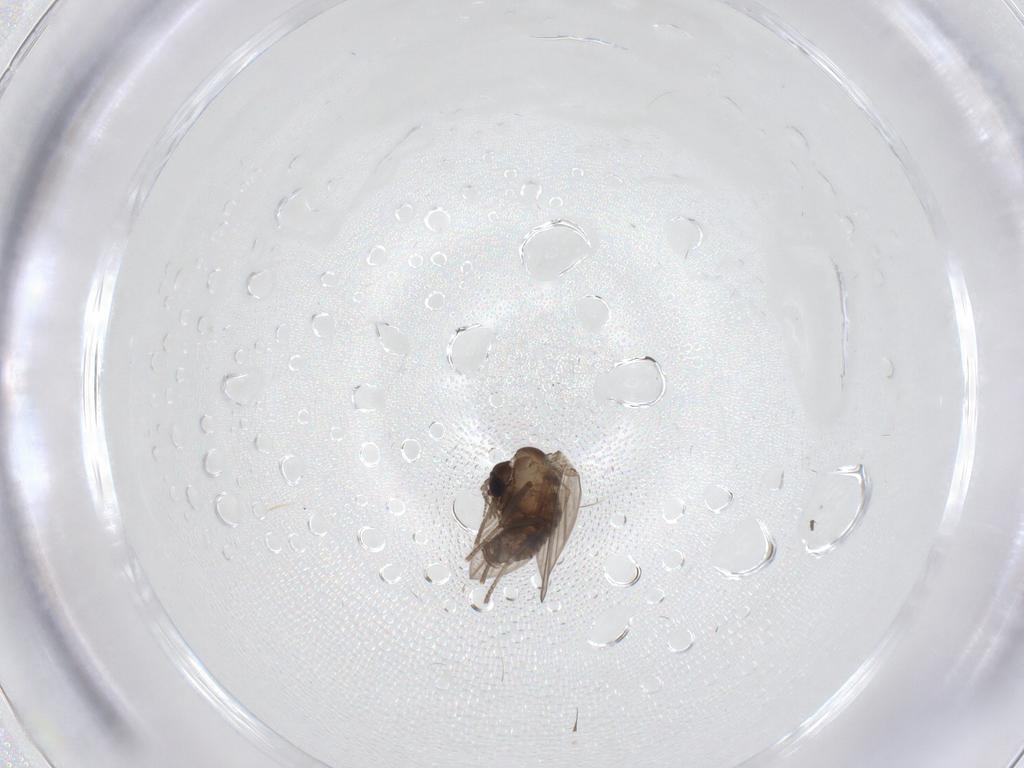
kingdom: Animalia
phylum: Arthropoda
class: Insecta
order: Diptera
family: Psychodidae
